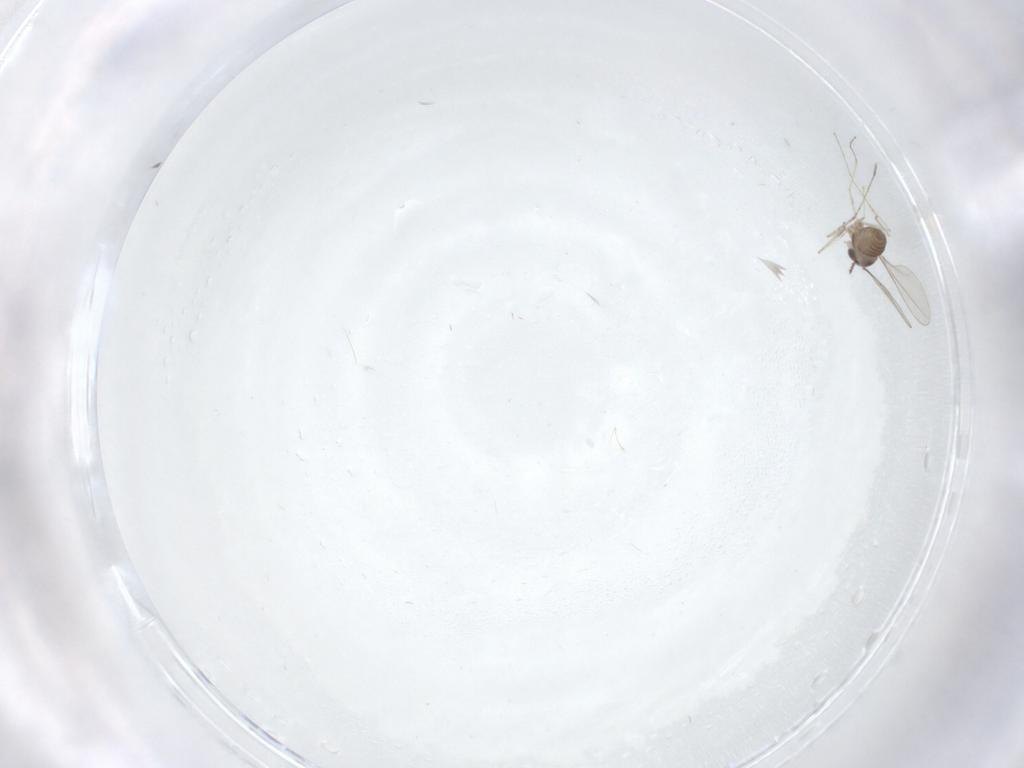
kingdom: Animalia
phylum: Arthropoda
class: Insecta
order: Diptera
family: Cecidomyiidae
